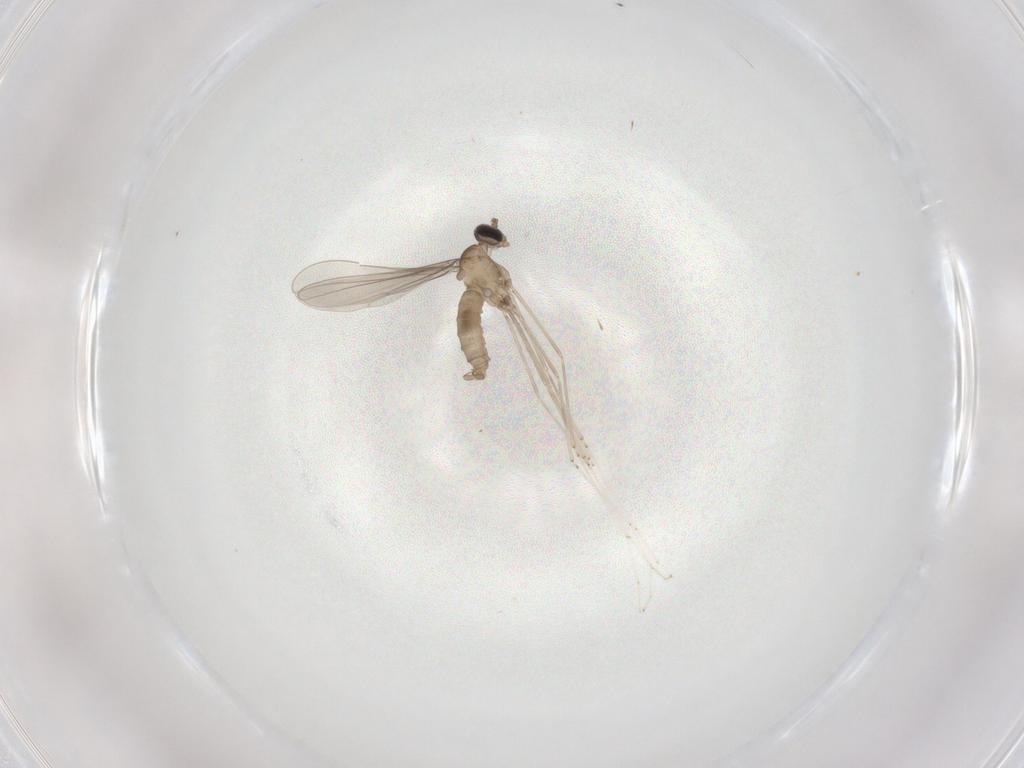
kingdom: Animalia
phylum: Arthropoda
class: Insecta
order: Diptera
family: Cecidomyiidae
